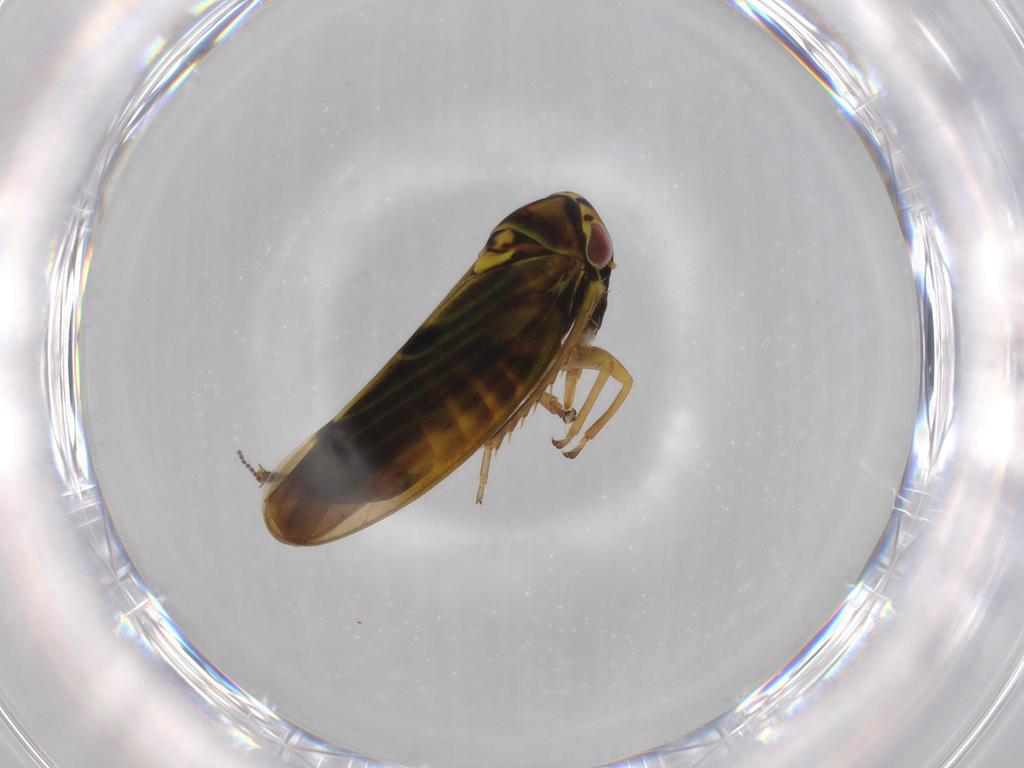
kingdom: Animalia
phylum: Arthropoda
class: Insecta
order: Hemiptera
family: Cicadellidae
